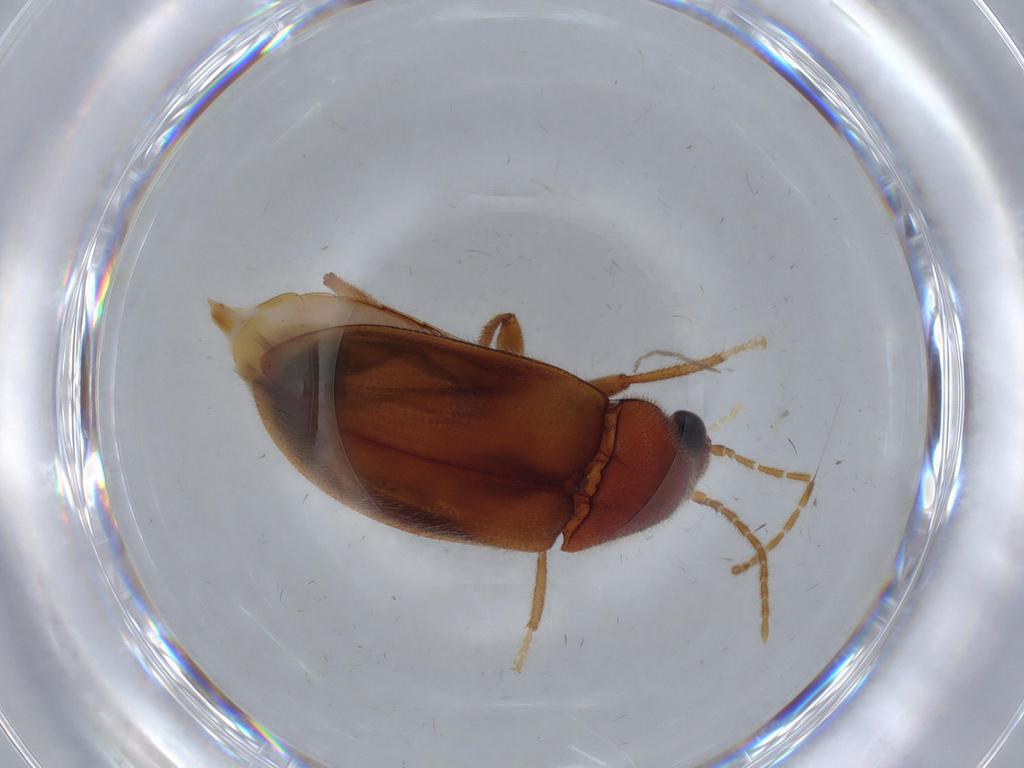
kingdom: Animalia
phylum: Arthropoda
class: Insecta
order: Coleoptera
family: Ptilodactylidae
